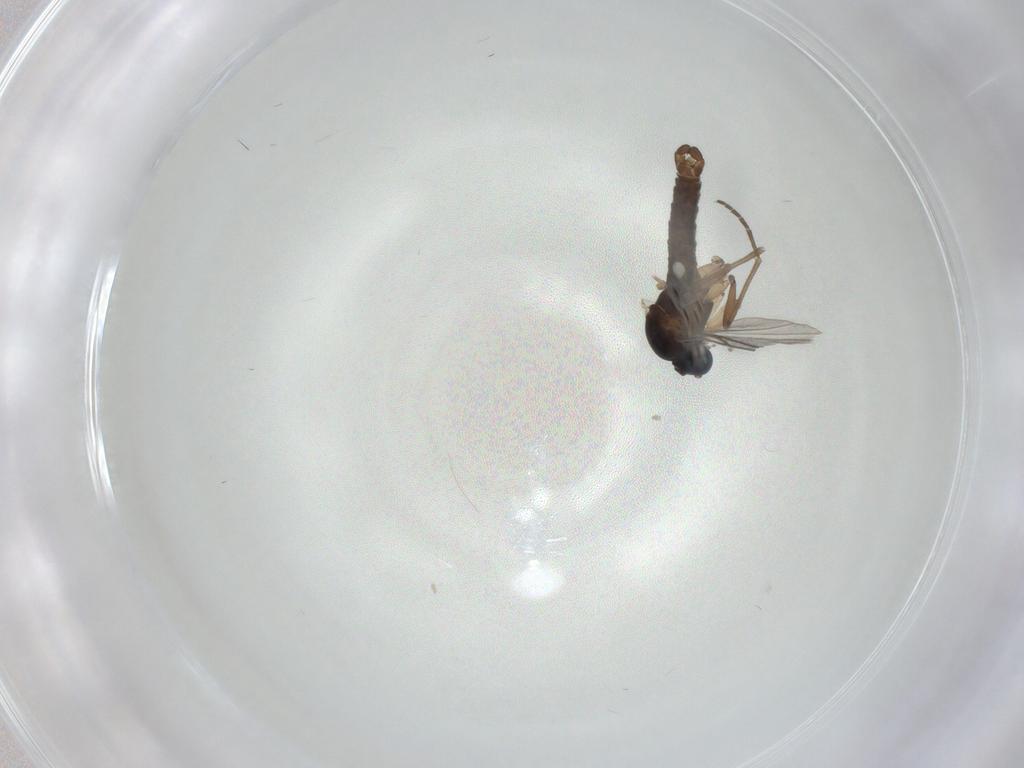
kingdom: Animalia
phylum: Arthropoda
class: Insecta
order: Diptera
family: Sciaridae
